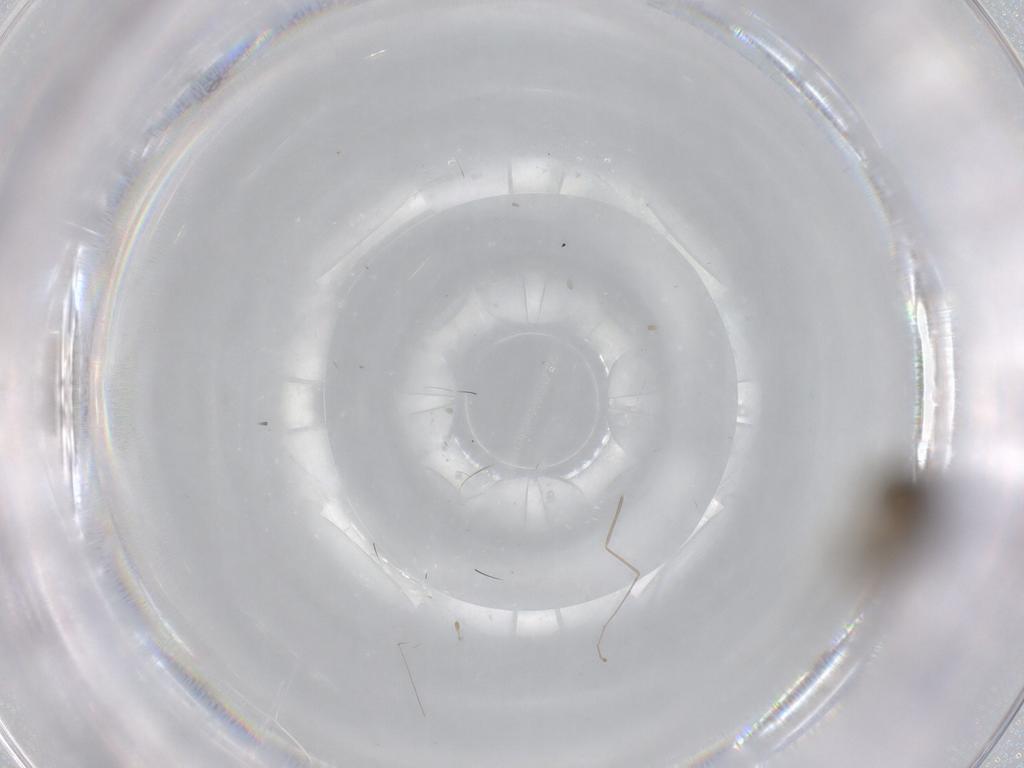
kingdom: Animalia
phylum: Arthropoda
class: Insecta
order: Diptera
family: Phoridae
